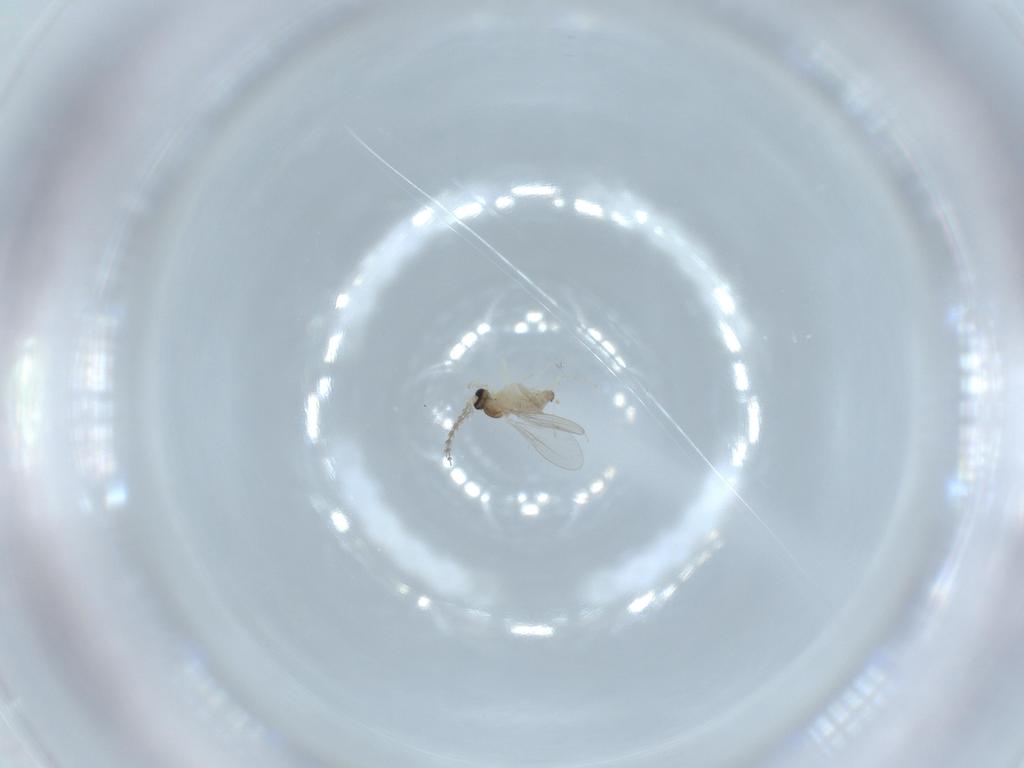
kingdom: Animalia
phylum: Arthropoda
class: Insecta
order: Diptera
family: Cecidomyiidae
